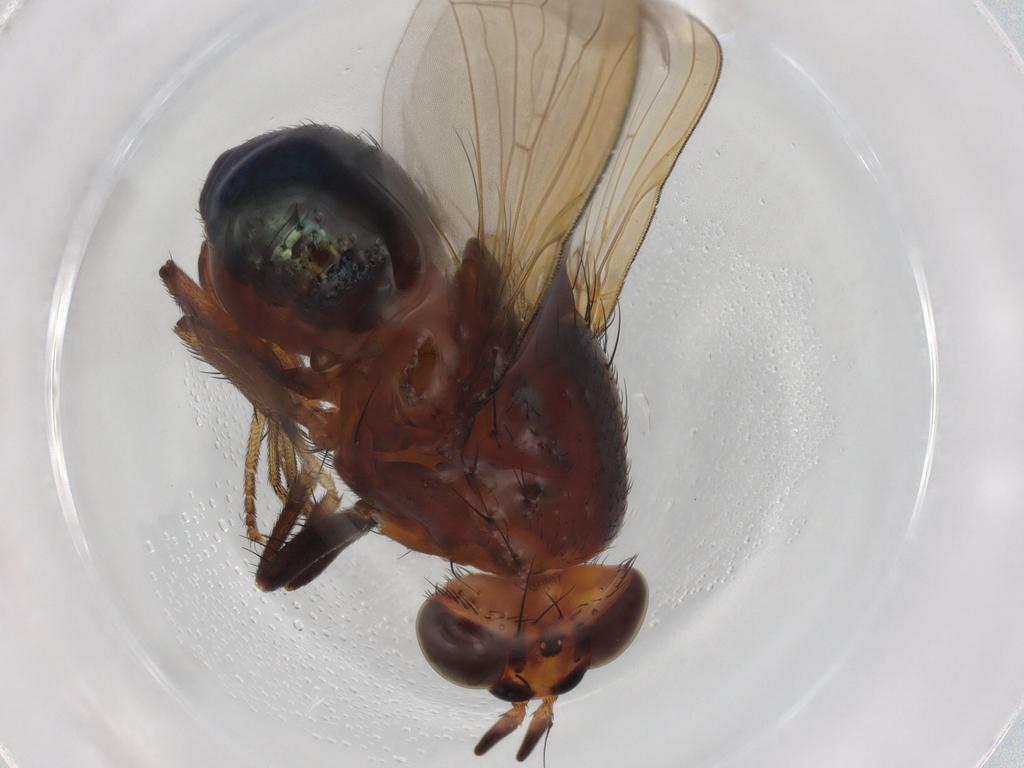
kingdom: Animalia
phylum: Arthropoda
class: Insecta
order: Diptera
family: Lauxaniidae
